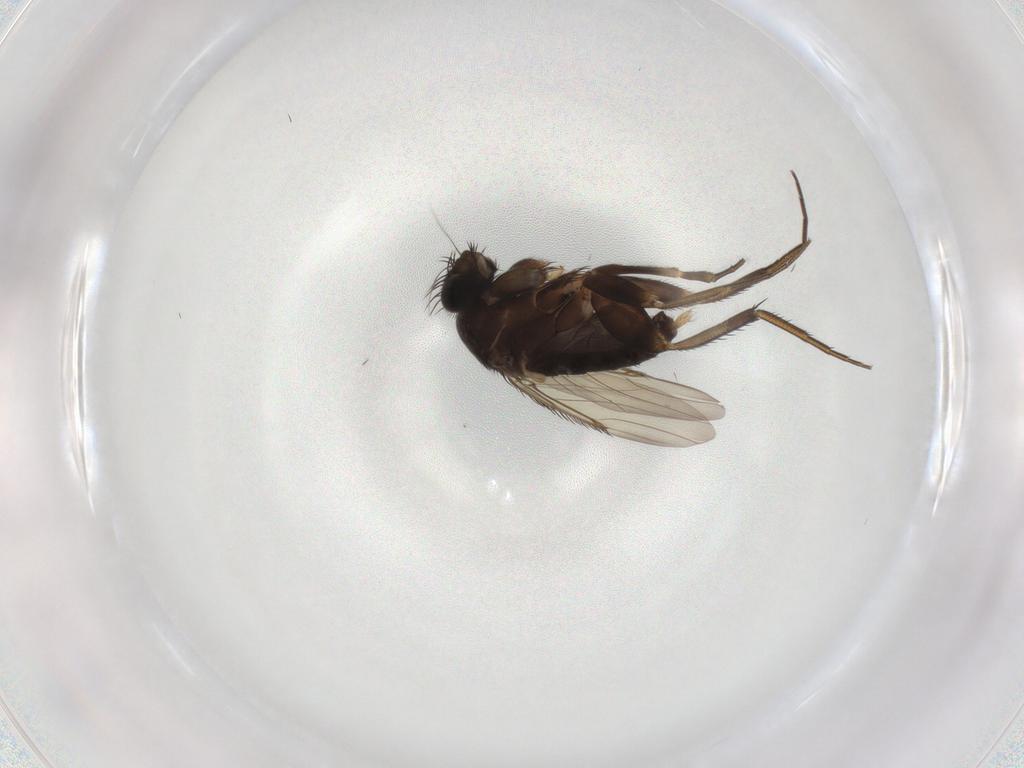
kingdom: Animalia
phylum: Arthropoda
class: Insecta
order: Diptera
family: Phoridae
